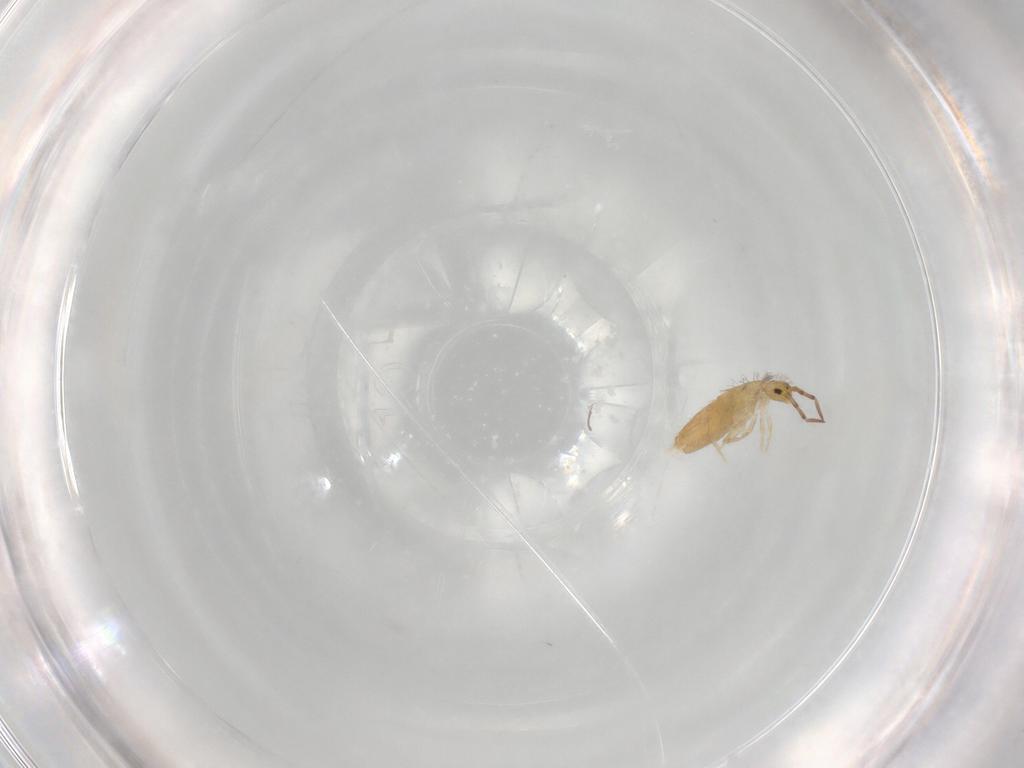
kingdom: Animalia
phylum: Arthropoda
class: Collembola
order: Entomobryomorpha
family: Entomobryidae
